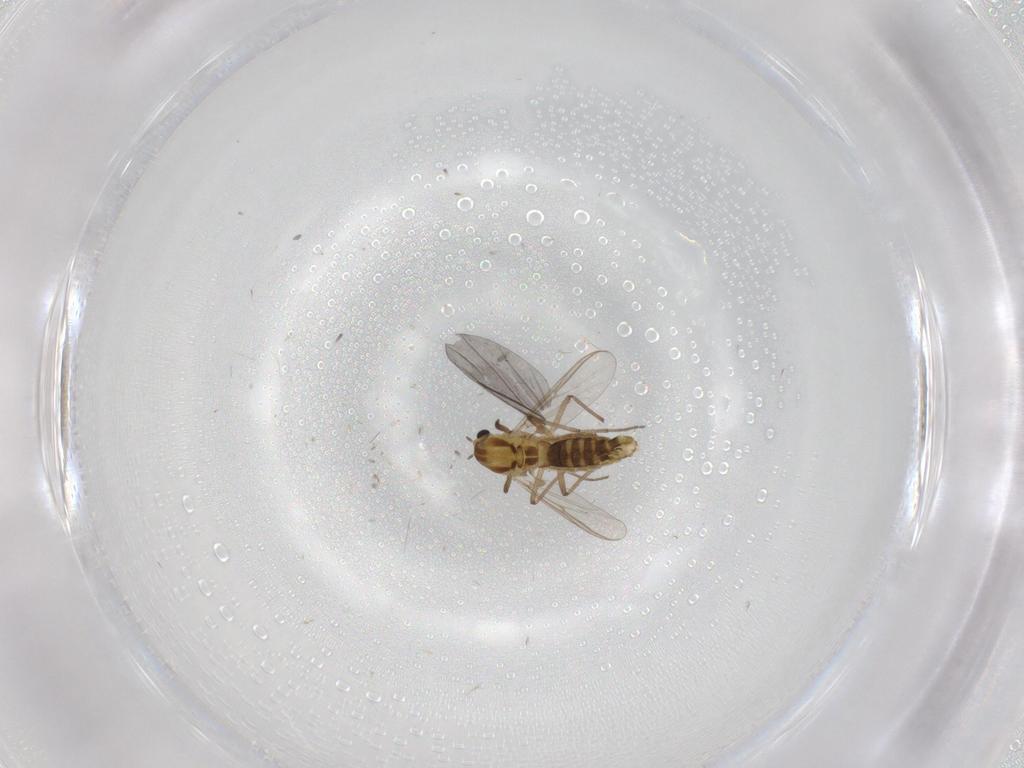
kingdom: Animalia
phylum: Arthropoda
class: Insecta
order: Diptera
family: Chironomidae
